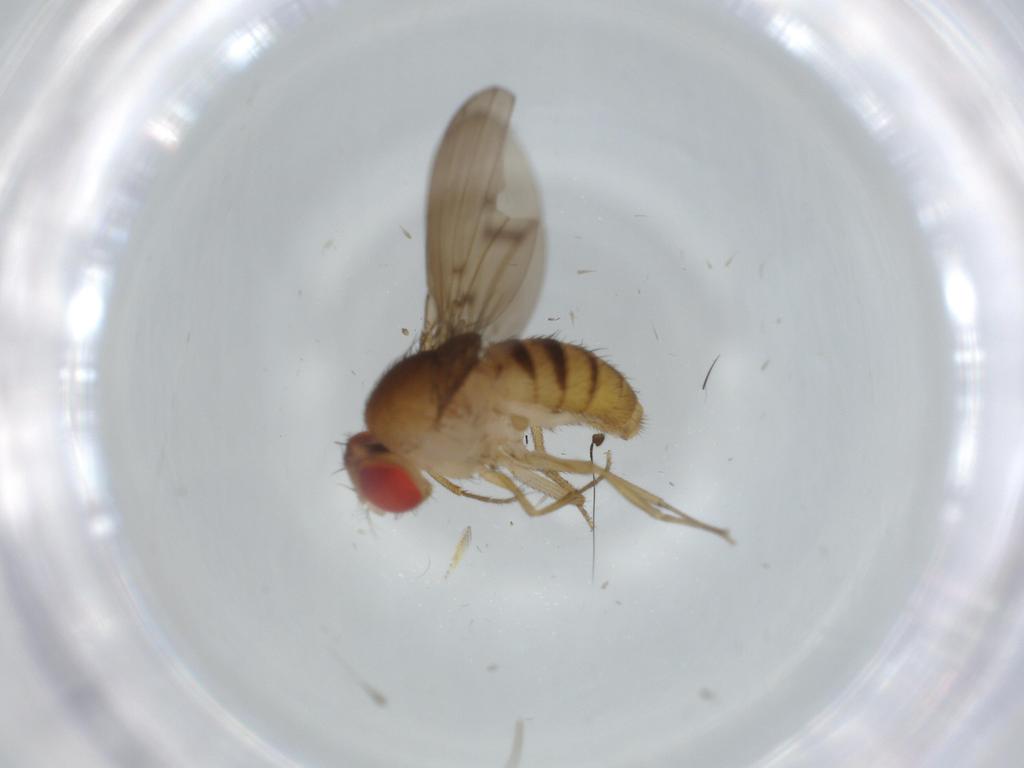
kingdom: Animalia
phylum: Arthropoda
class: Insecta
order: Diptera
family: Drosophilidae
